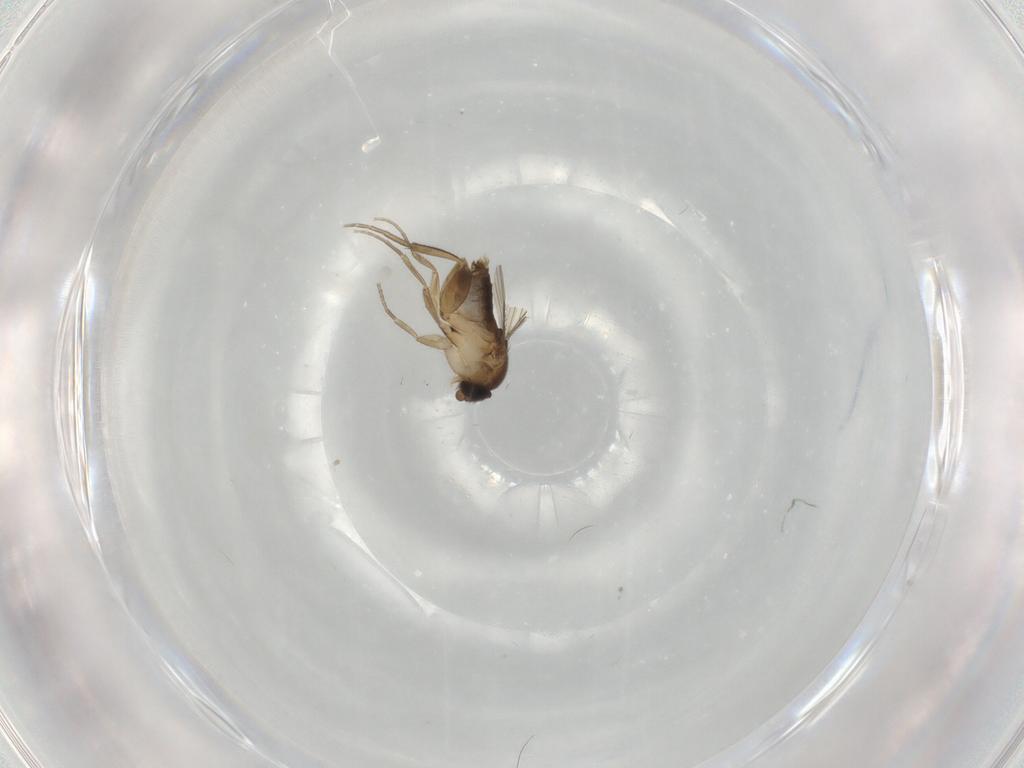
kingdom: Animalia
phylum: Arthropoda
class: Insecta
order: Diptera
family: Phoridae
